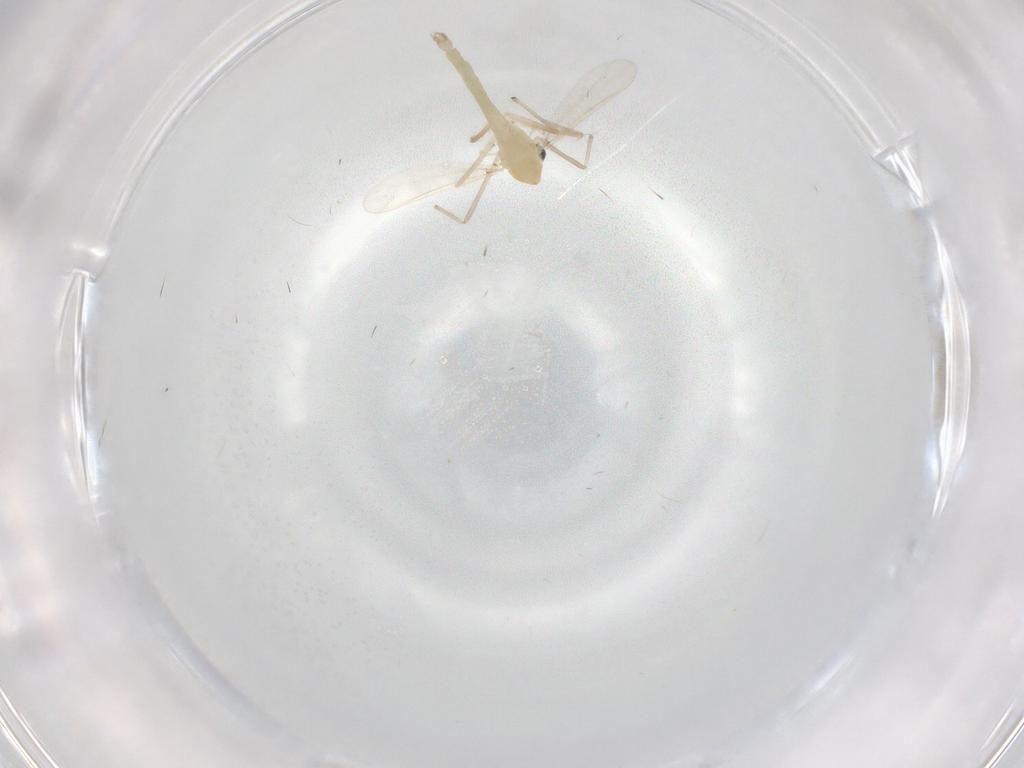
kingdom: Animalia
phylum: Arthropoda
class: Insecta
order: Diptera
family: Chironomidae
